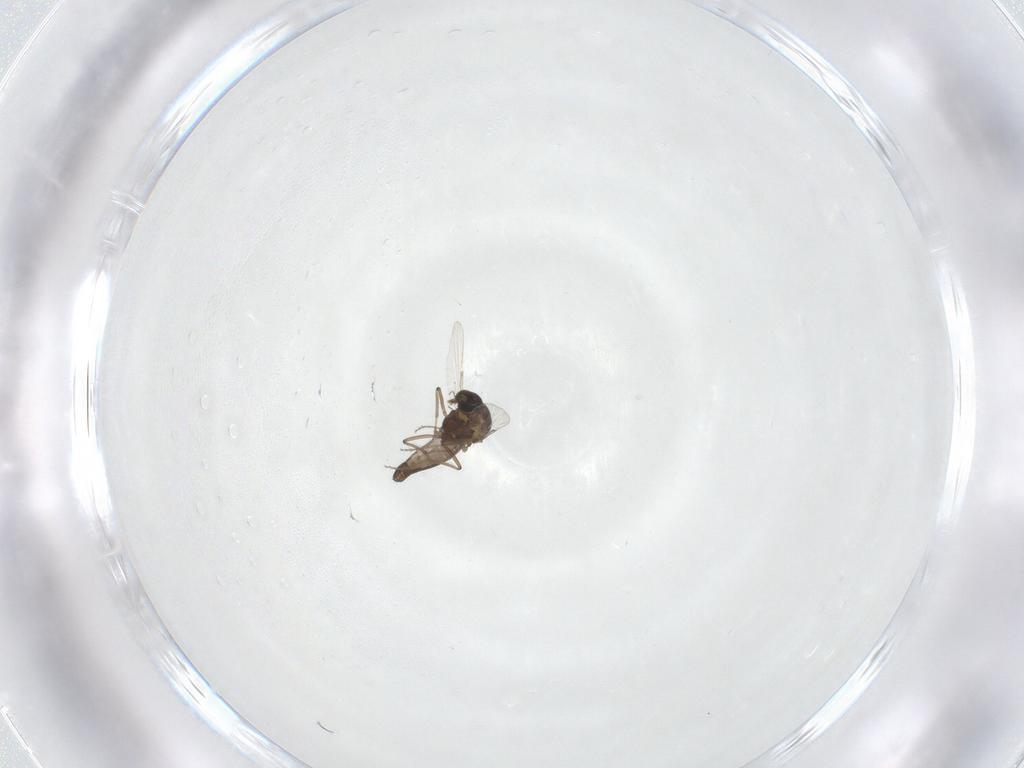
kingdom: Animalia
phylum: Arthropoda
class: Insecta
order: Diptera
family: Ceratopogonidae
